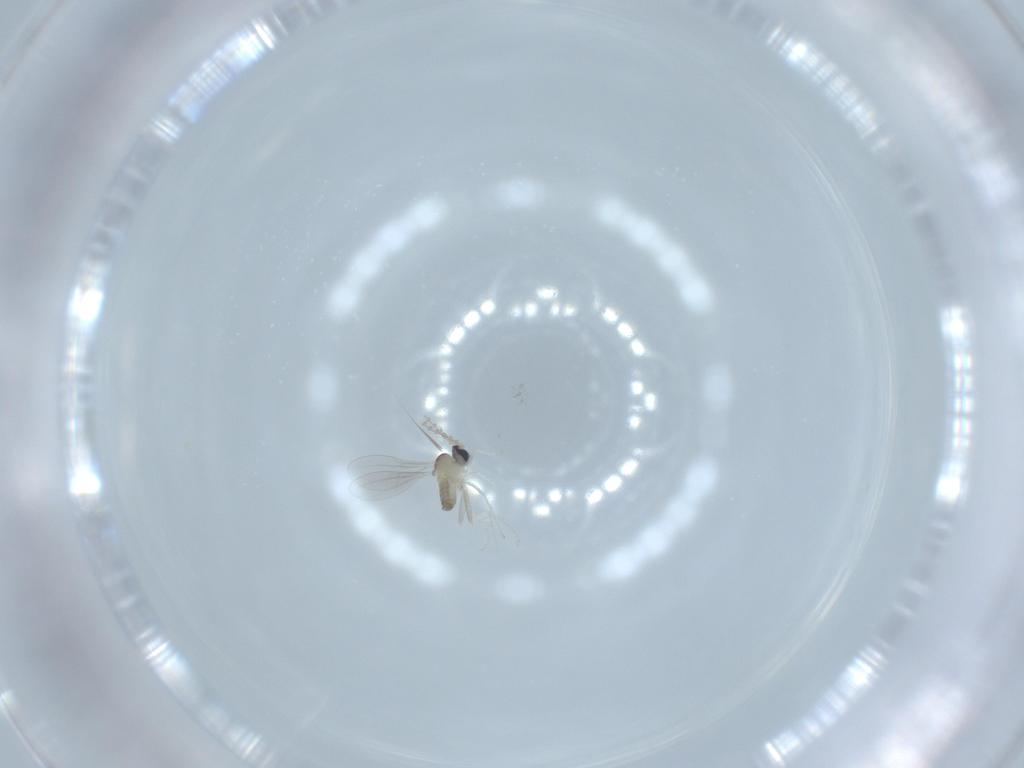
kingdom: Animalia
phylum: Arthropoda
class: Insecta
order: Diptera
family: Cecidomyiidae
